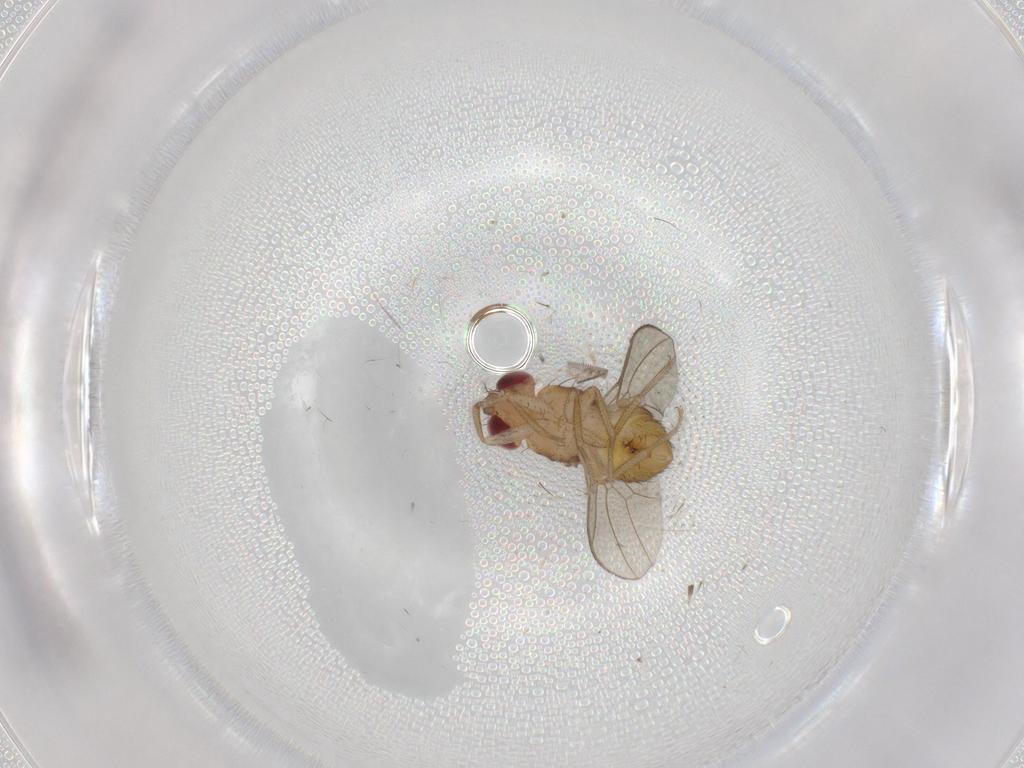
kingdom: Animalia
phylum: Arthropoda
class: Insecta
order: Diptera
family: Drosophilidae
